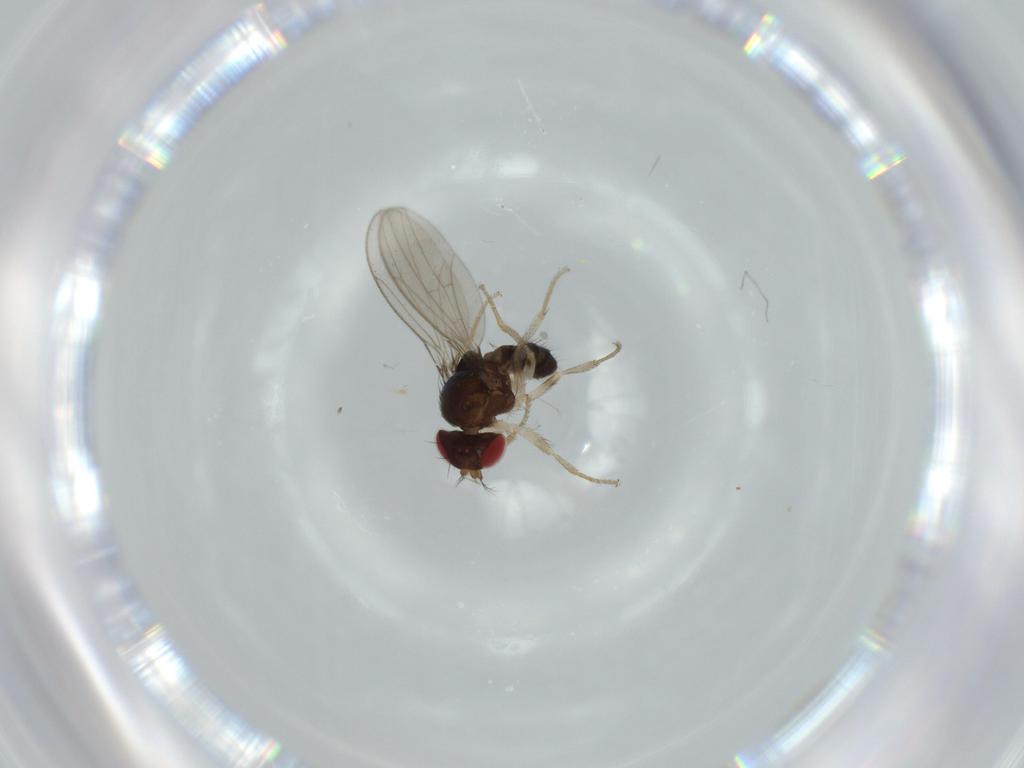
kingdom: Animalia
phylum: Arthropoda
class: Insecta
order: Diptera
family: Drosophilidae
